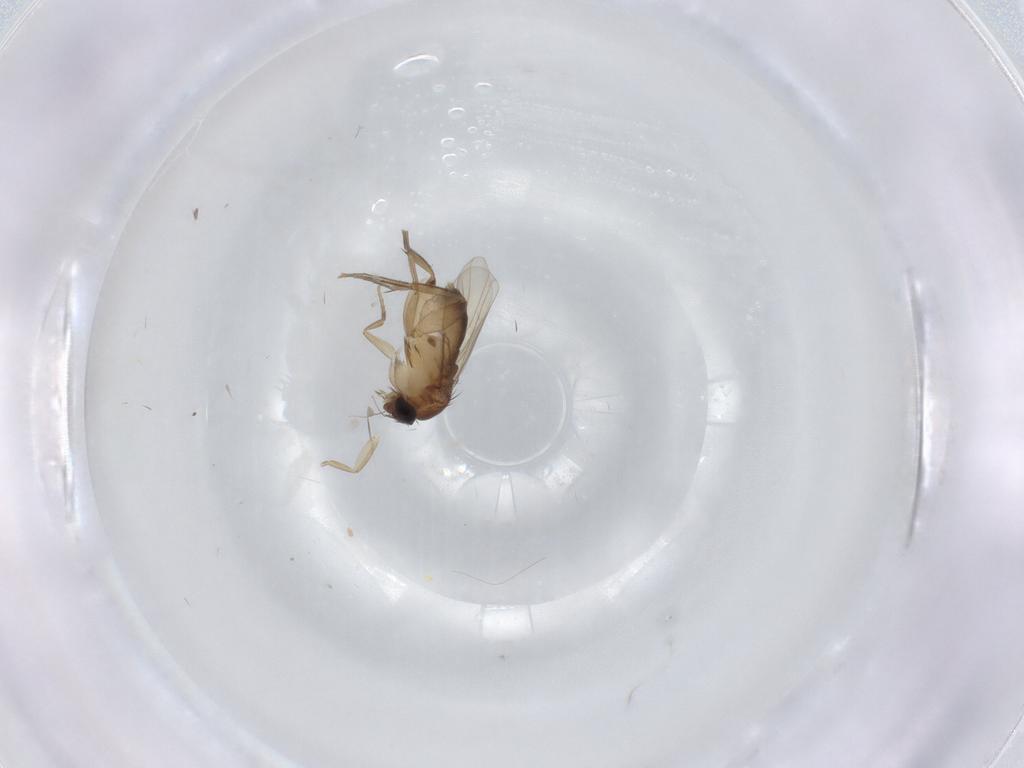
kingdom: Animalia
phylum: Arthropoda
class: Insecta
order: Diptera
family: Phoridae
